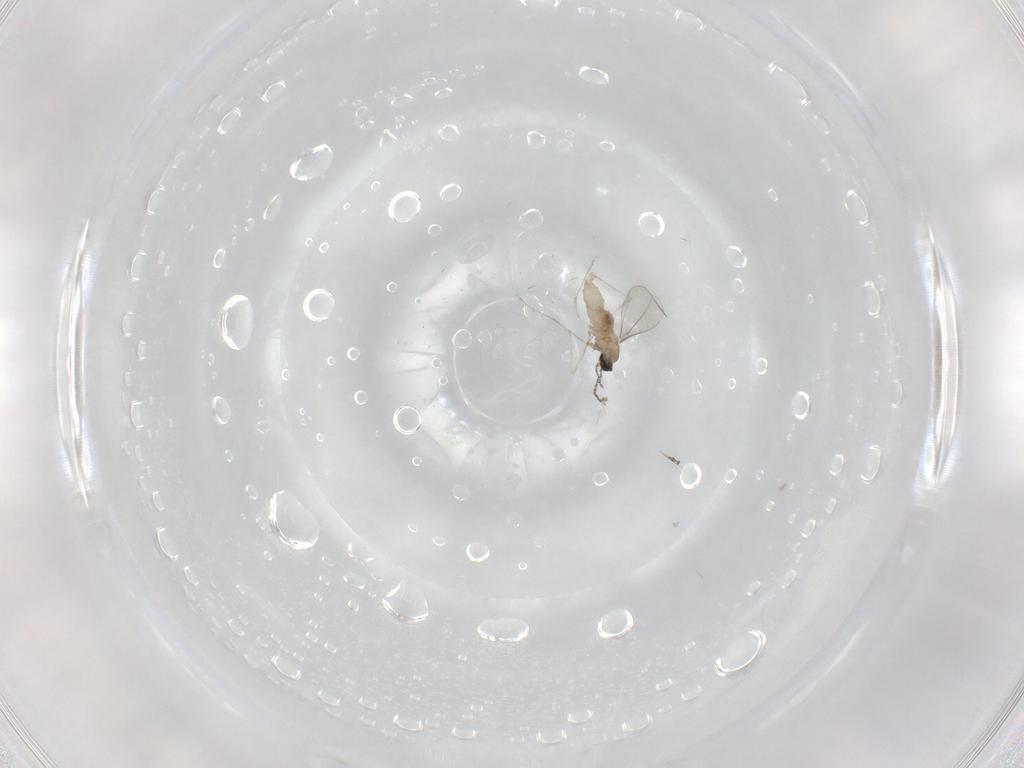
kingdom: Animalia
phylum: Arthropoda
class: Insecta
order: Diptera
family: Cecidomyiidae
